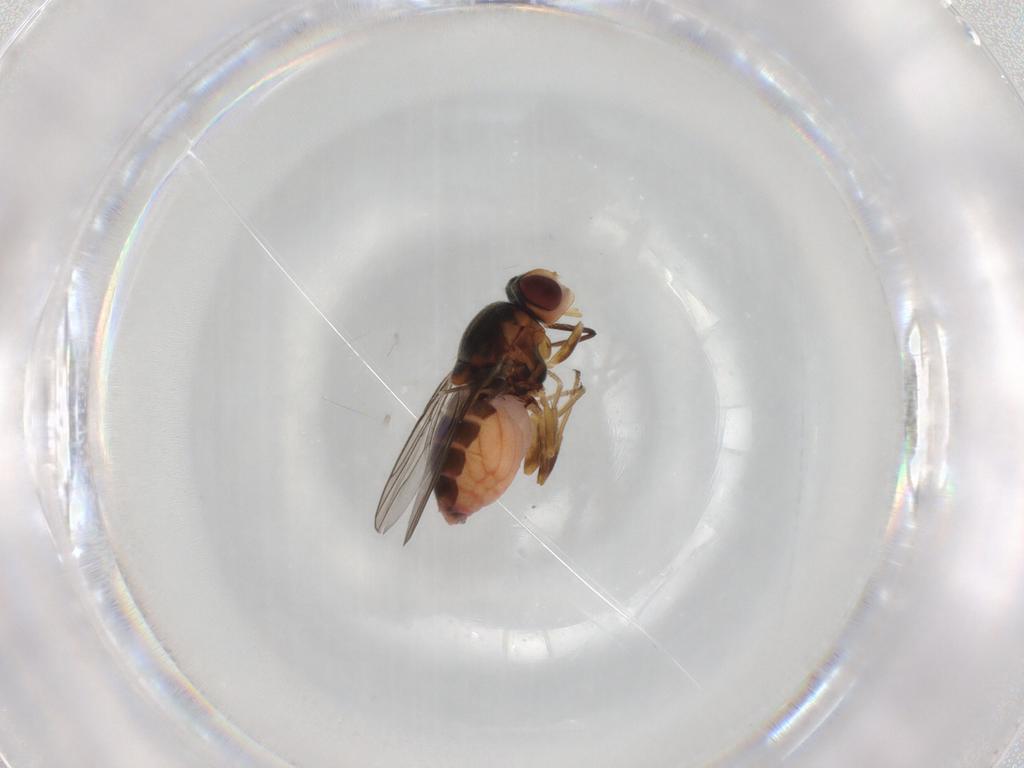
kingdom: Animalia
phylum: Arthropoda
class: Insecta
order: Diptera
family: Chloropidae
